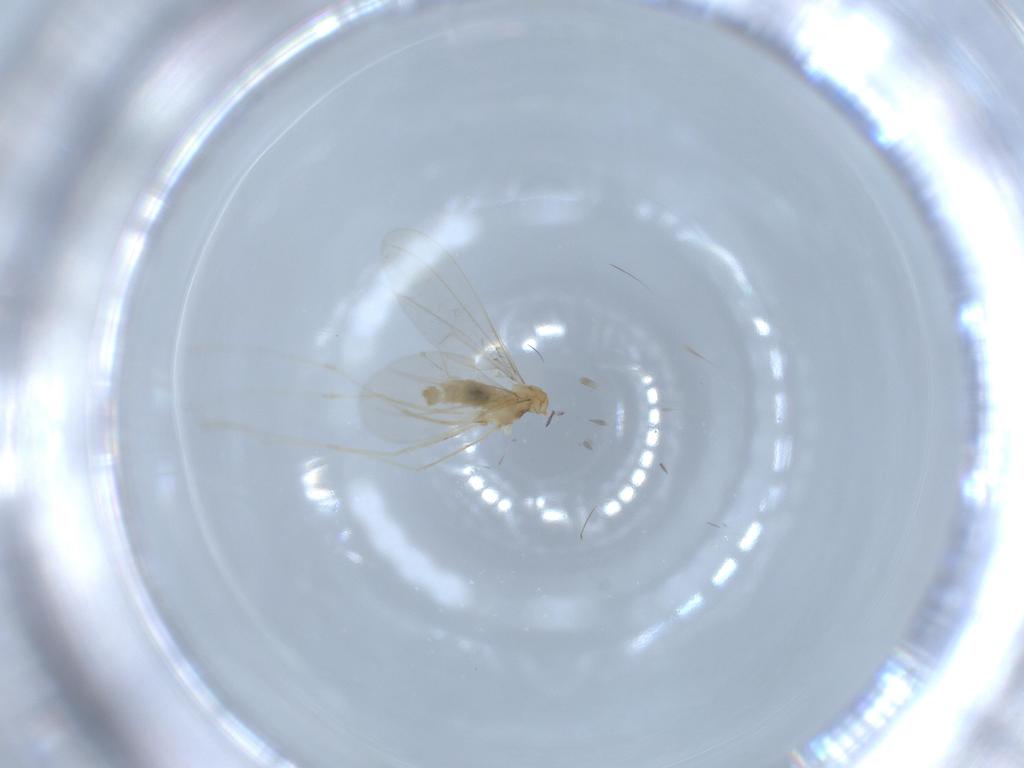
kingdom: Animalia
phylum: Arthropoda
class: Insecta
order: Diptera
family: Cecidomyiidae
